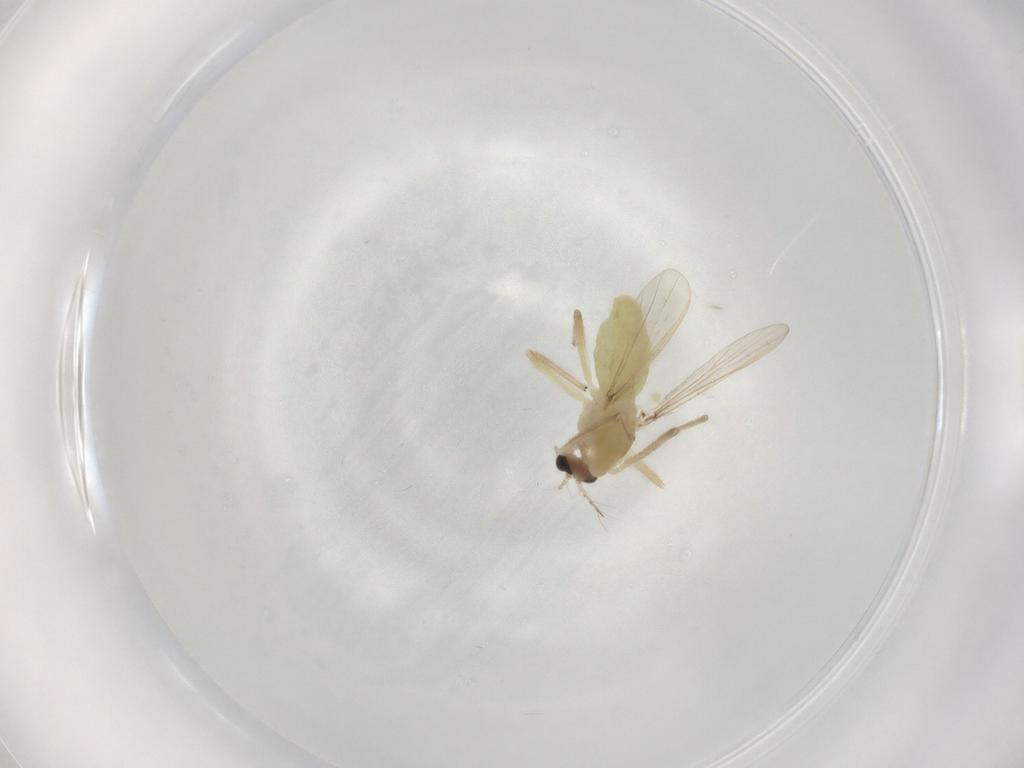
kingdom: Animalia
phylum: Arthropoda
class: Insecta
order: Diptera
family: Chironomidae
